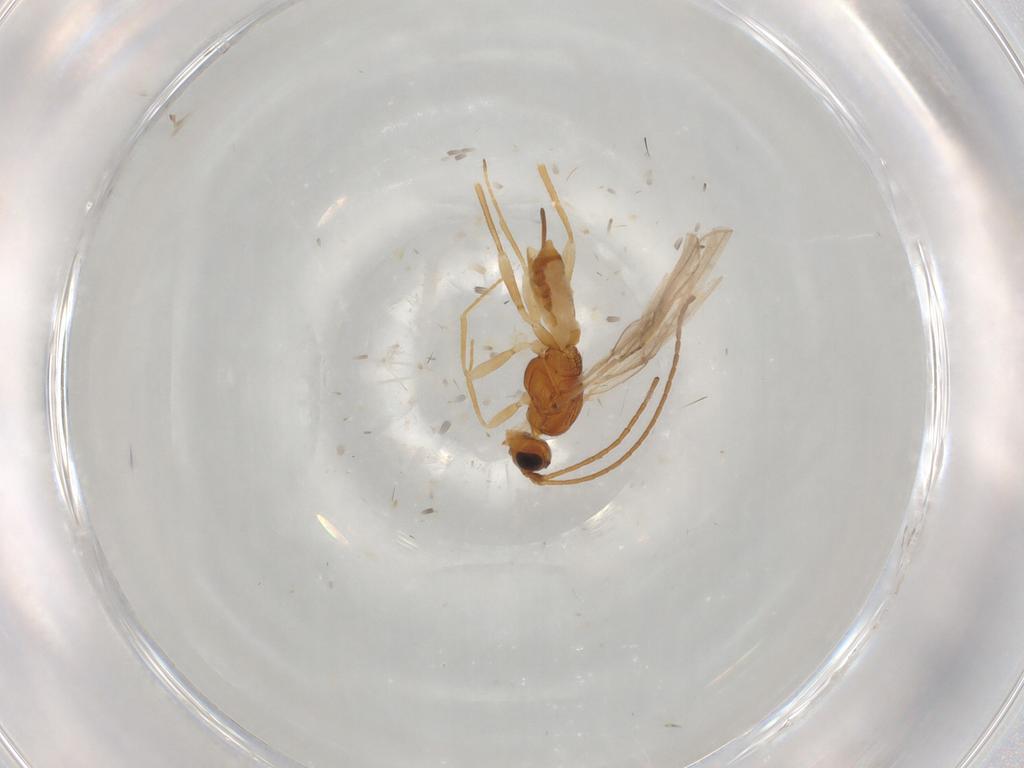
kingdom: Animalia
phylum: Arthropoda
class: Insecta
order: Hymenoptera
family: Braconidae
